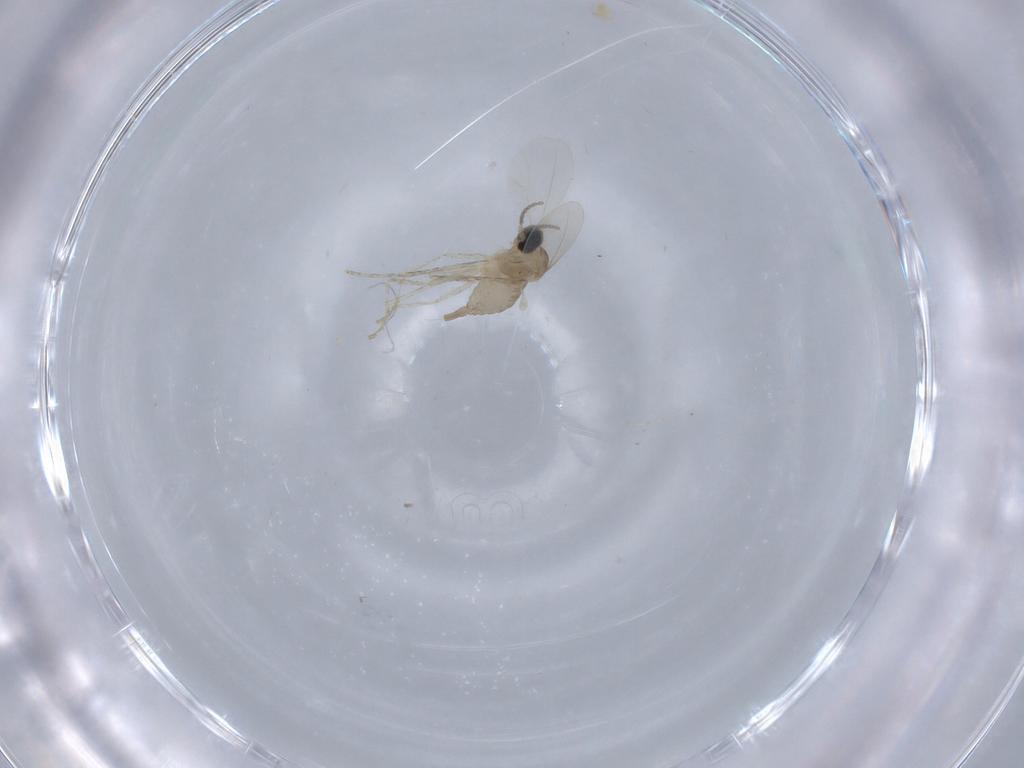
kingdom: Animalia
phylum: Arthropoda
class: Insecta
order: Diptera
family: Cecidomyiidae
